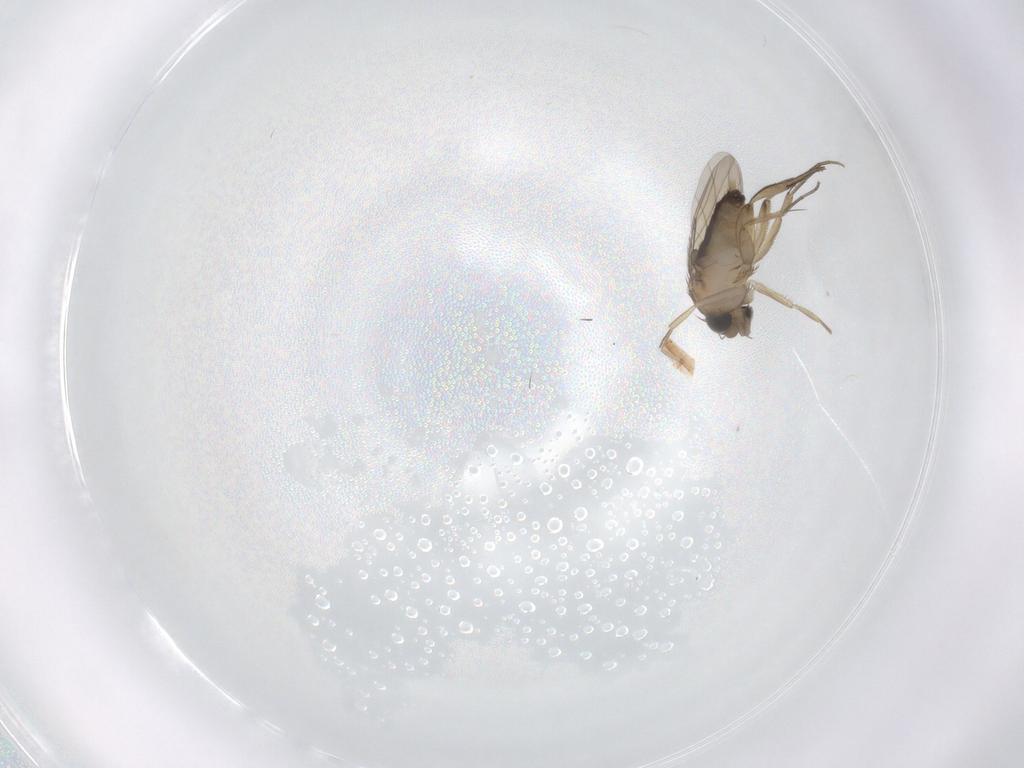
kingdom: Animalia
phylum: Arthropoda
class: Insecta
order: Diptera
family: Phoridae
